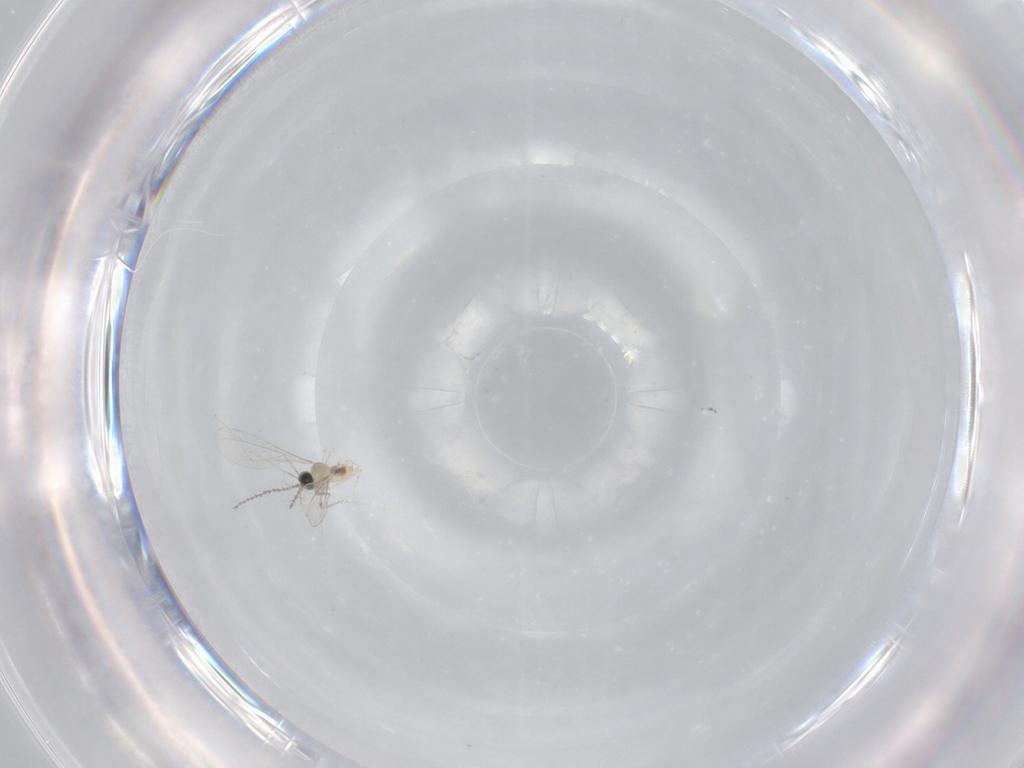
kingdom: Animalia
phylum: Arthropoda
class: Insecta
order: Diptera
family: Cecidomyiidae
